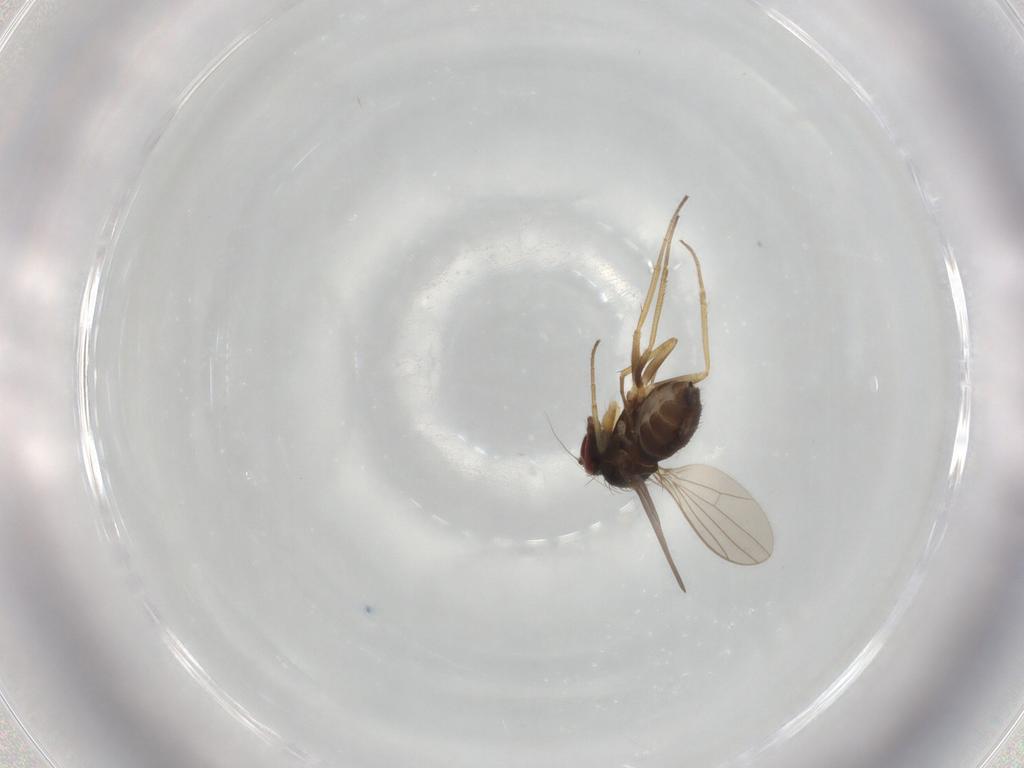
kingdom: Animalia
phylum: Arthropoda
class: Insecta
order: Diptera
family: Dolichopodidae
